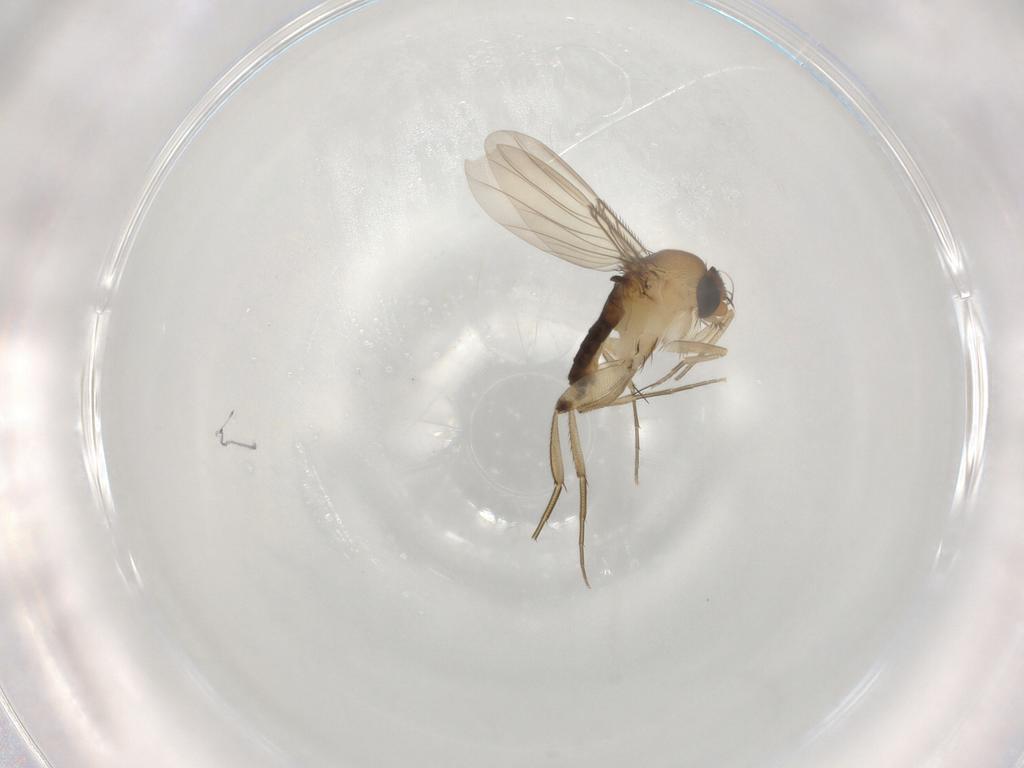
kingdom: Animalia
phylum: Arthropoda
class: Insecta
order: Diptera
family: Phoridae
